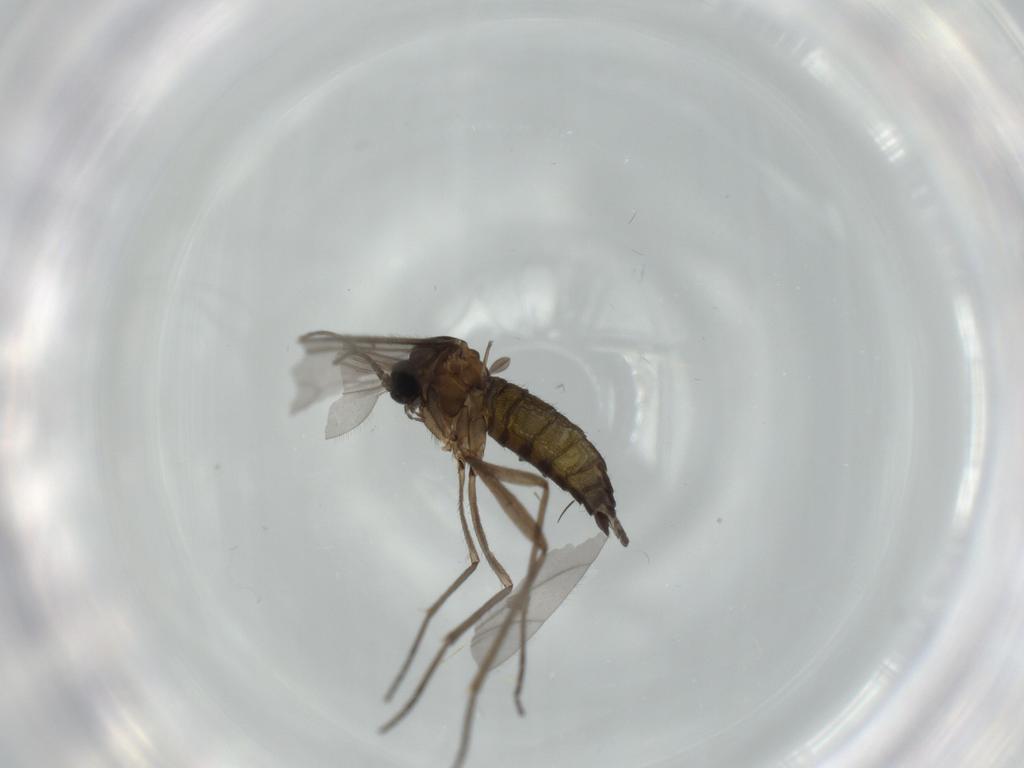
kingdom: Animalia
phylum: Arthropoda
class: Insecta
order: Diptera
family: Sciaridae
